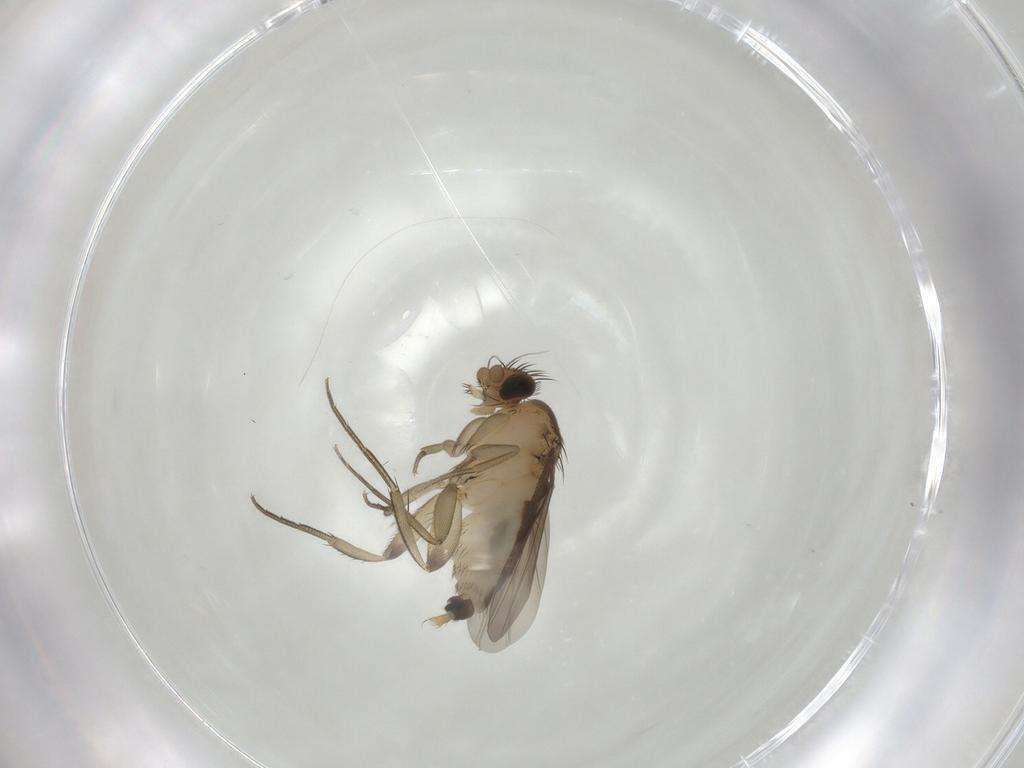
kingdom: Animalia
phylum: Arthropoda
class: Insecta
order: Diptera
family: Phoridae
